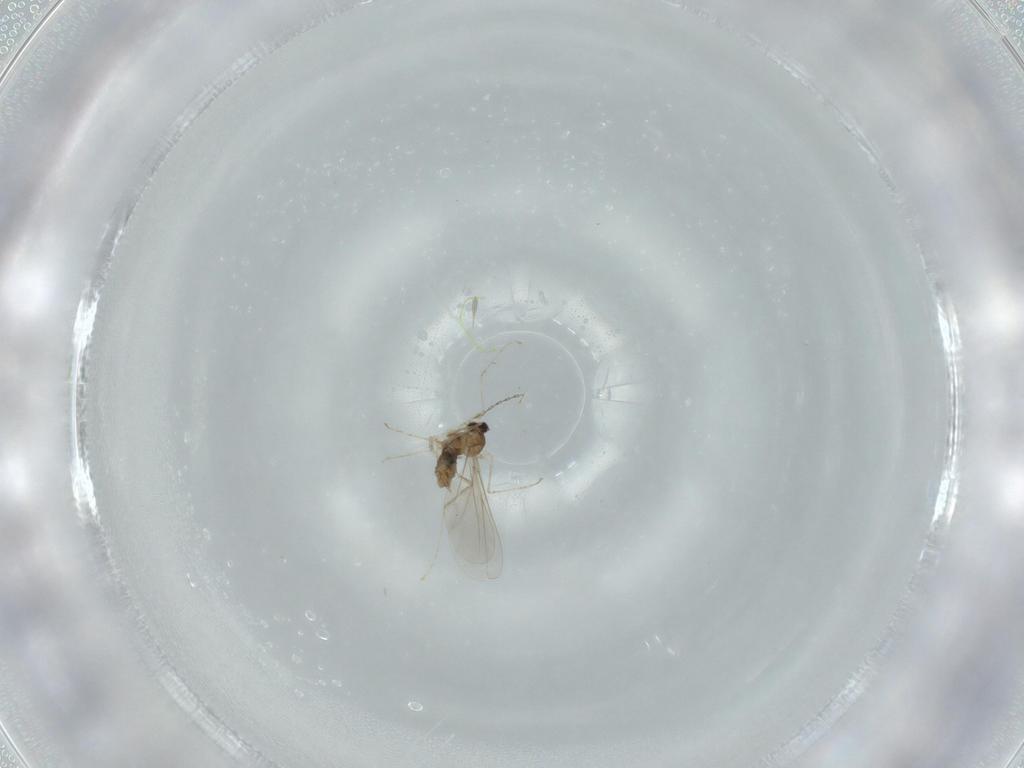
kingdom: Animalia
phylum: Arthropoda
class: Insecta
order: Diptera
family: Cecidomyiidae
